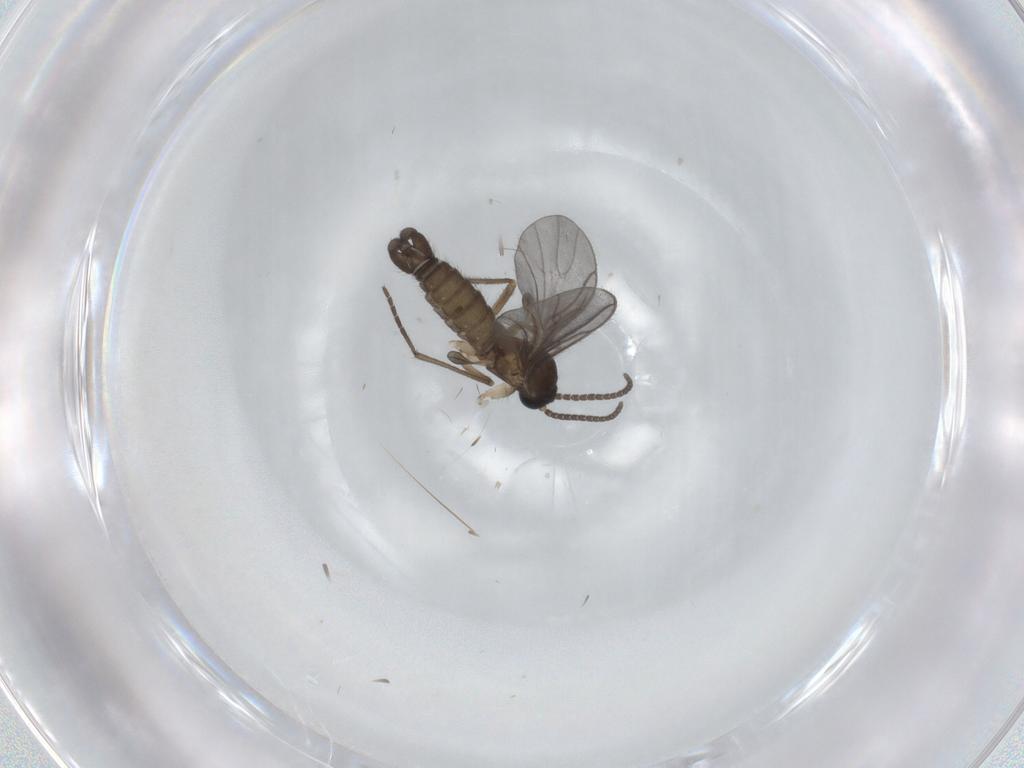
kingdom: Animalia
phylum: Arthropoda
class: Insecta
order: Diptera
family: Sciaridae
